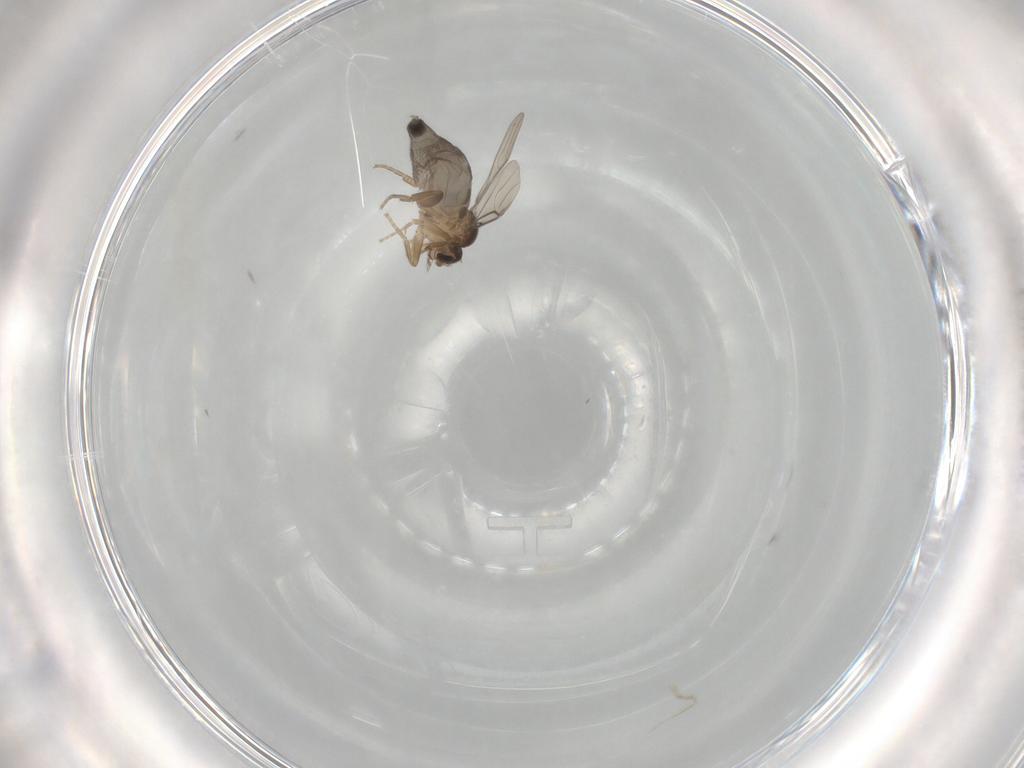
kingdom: Animalia
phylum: Arthropoda
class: Insecta
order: Diptera
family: Phoridae
